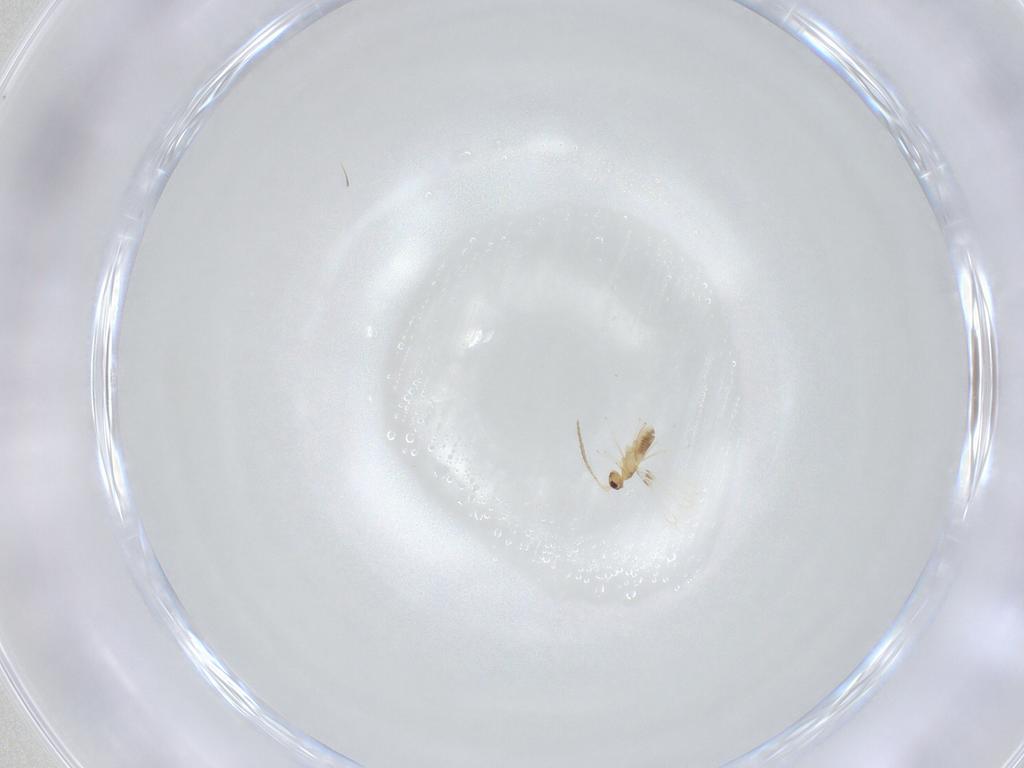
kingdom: Animalia
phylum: Arthropoda
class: Insecta
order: Hymenoptera
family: Mymaridae
